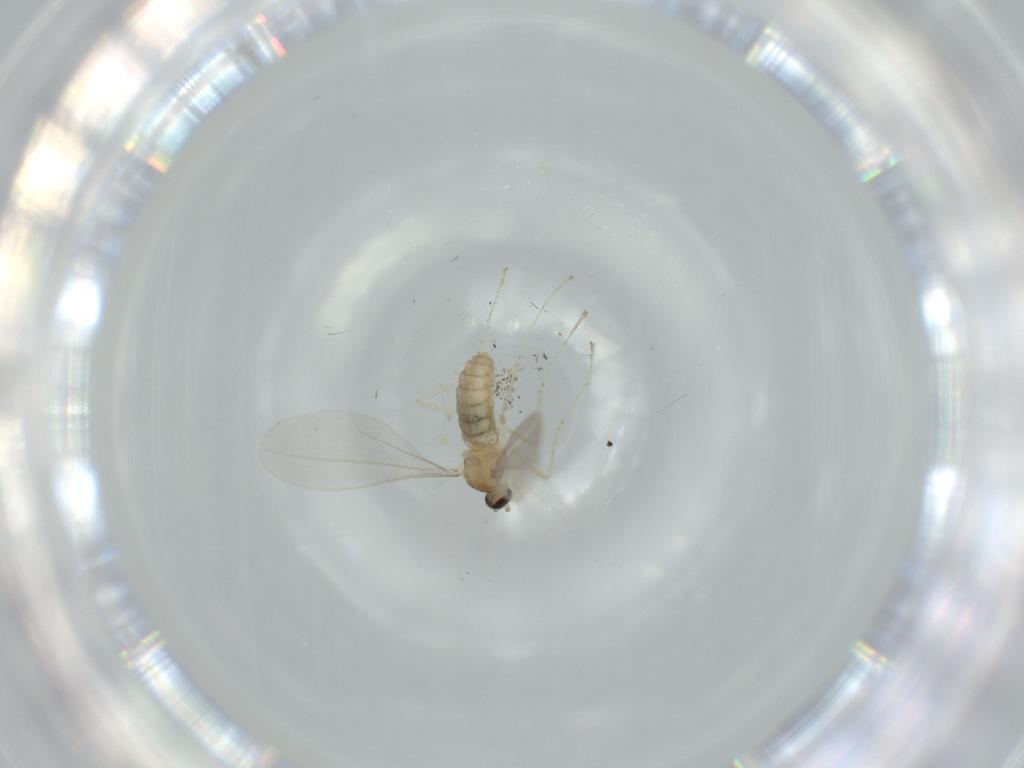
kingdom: Animalia
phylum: Arthropoda
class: Insecta
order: Diptera
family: Cecidomyiidae
